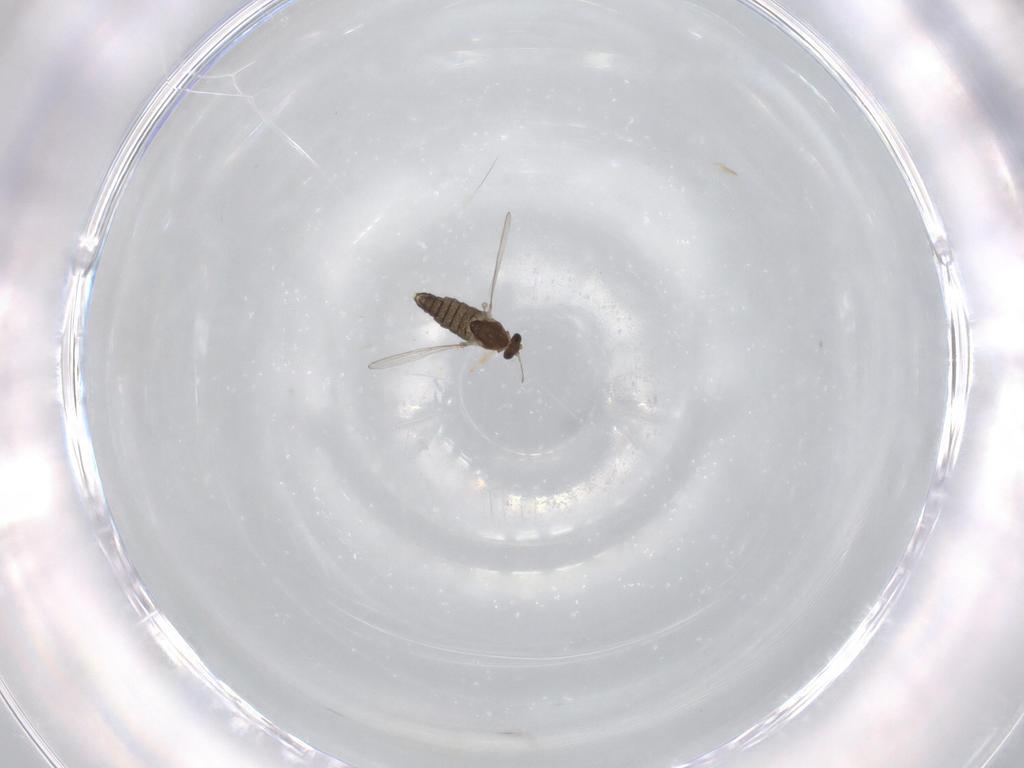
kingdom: Animalia
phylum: Arthropoda
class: Insecta
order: Diptera
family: Chironomidae
